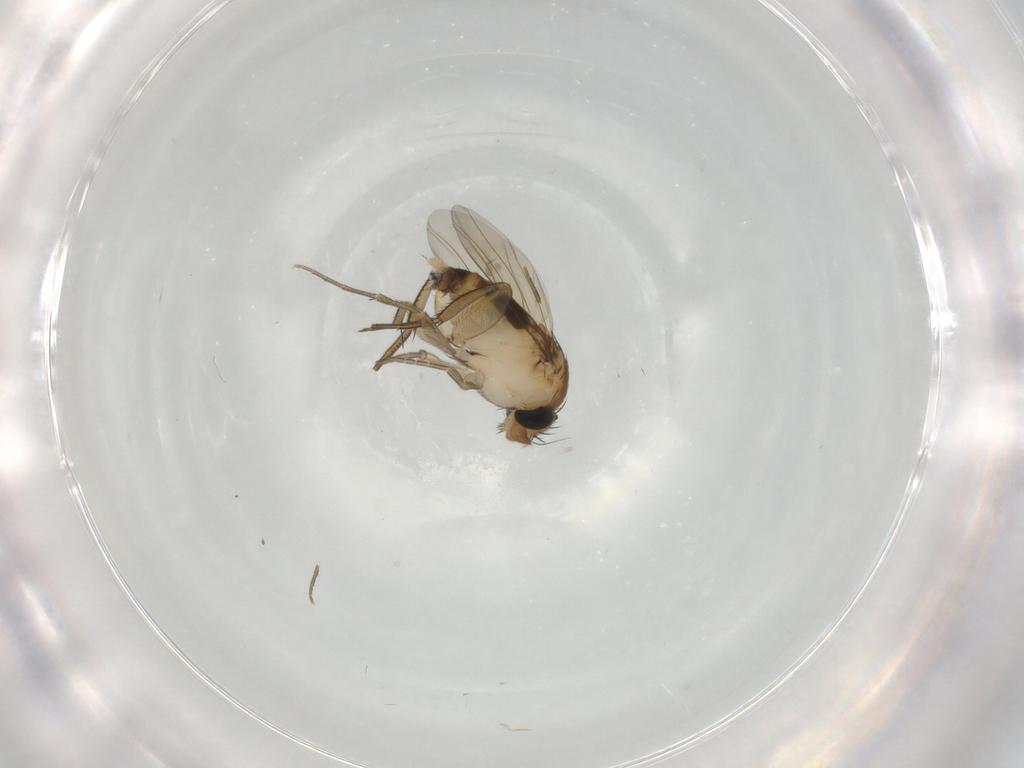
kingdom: Animalia
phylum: Arthropoda
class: Insecta
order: Diptera
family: Phoridae
